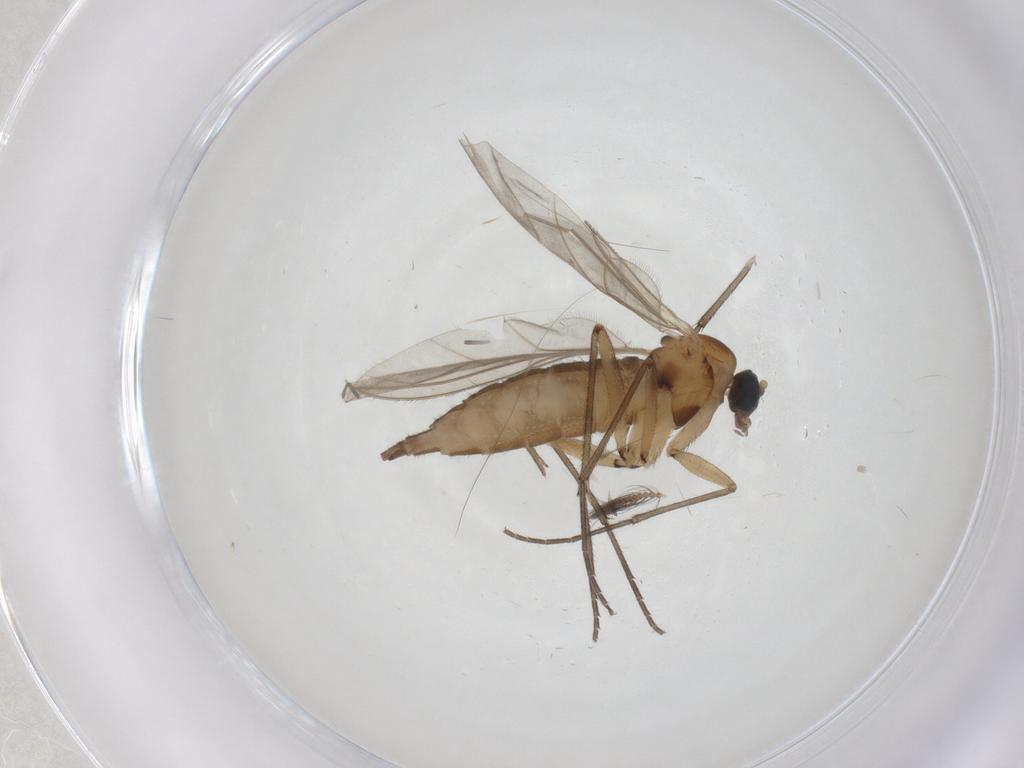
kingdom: Animalia
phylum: Arthropoda
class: Insecta
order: Diptera
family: Sciaridae
